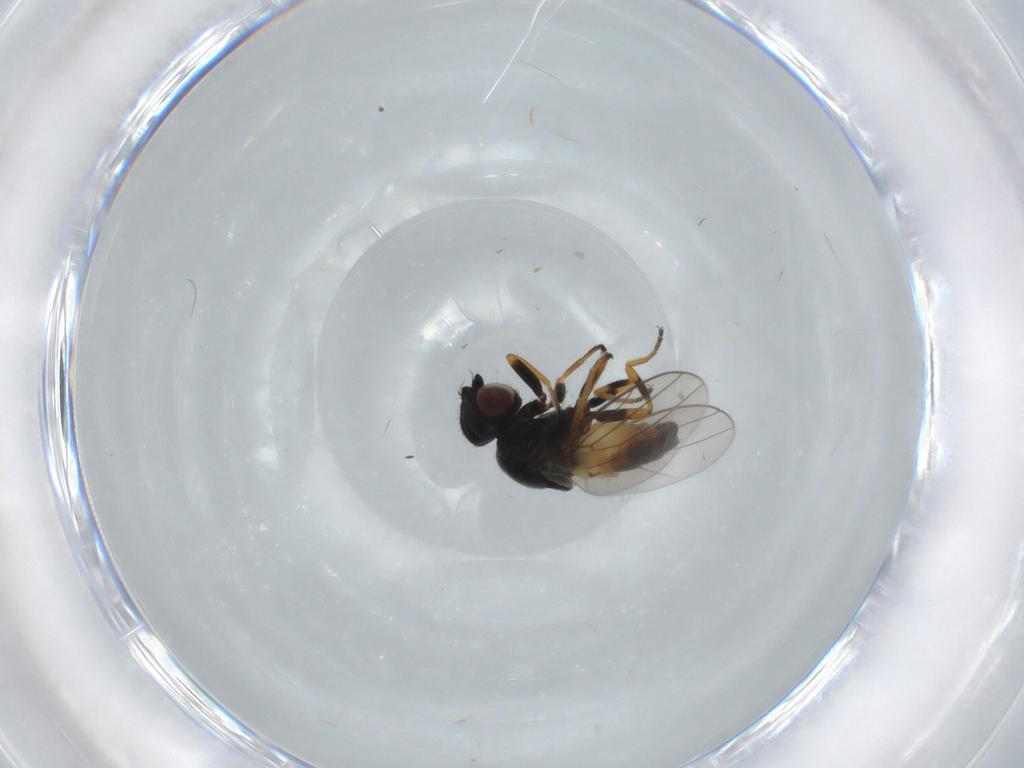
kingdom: Animalia
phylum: Arthropoda
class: Insecta
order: Diptera
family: Chloropidae
